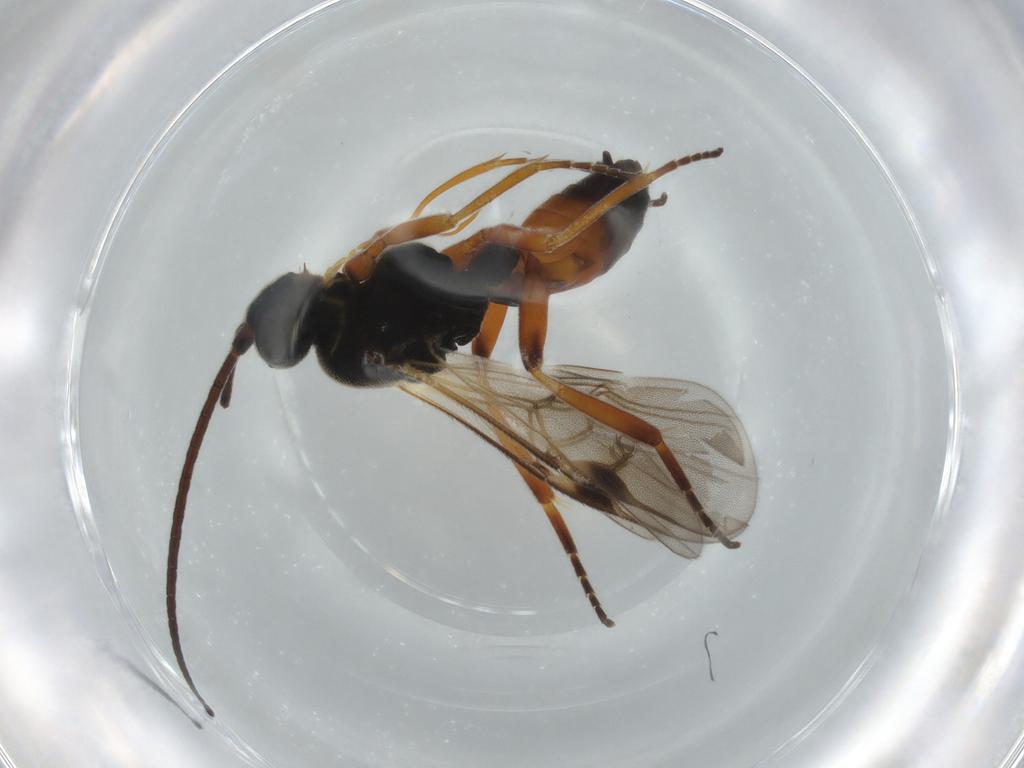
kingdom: Animalia
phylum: Arthropoda
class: Insecta
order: Hymenoptera
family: Braconidae
